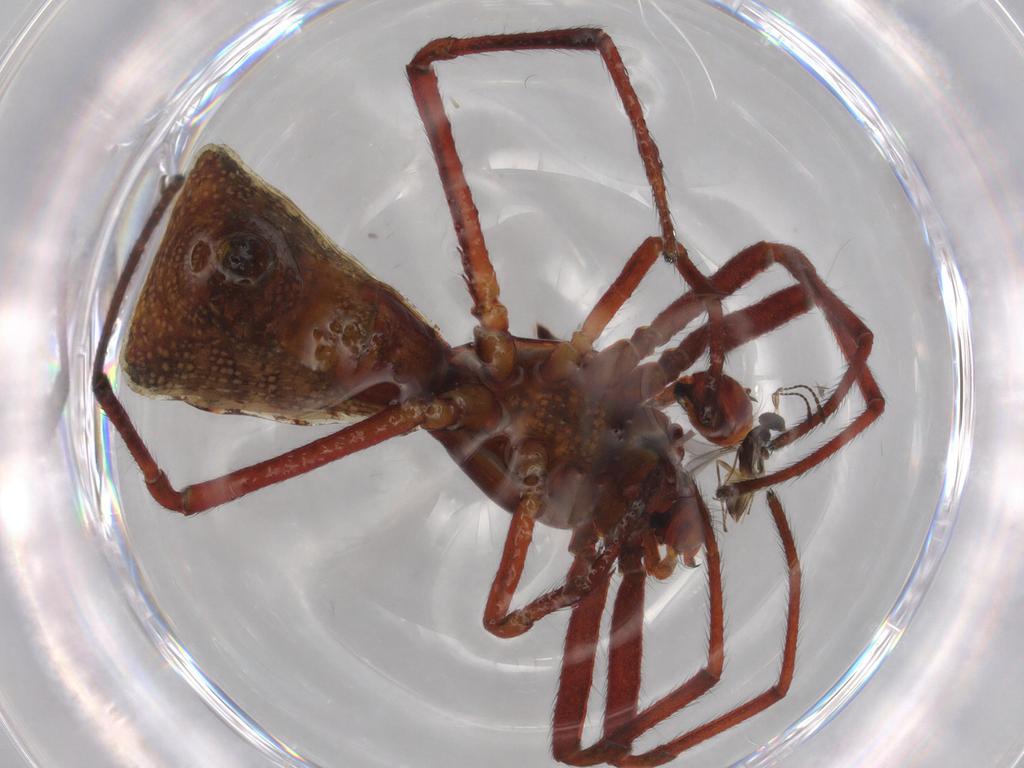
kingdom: Animalia
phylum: Arthropoda
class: Insecta
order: Hymenoptera
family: Mymaridae
